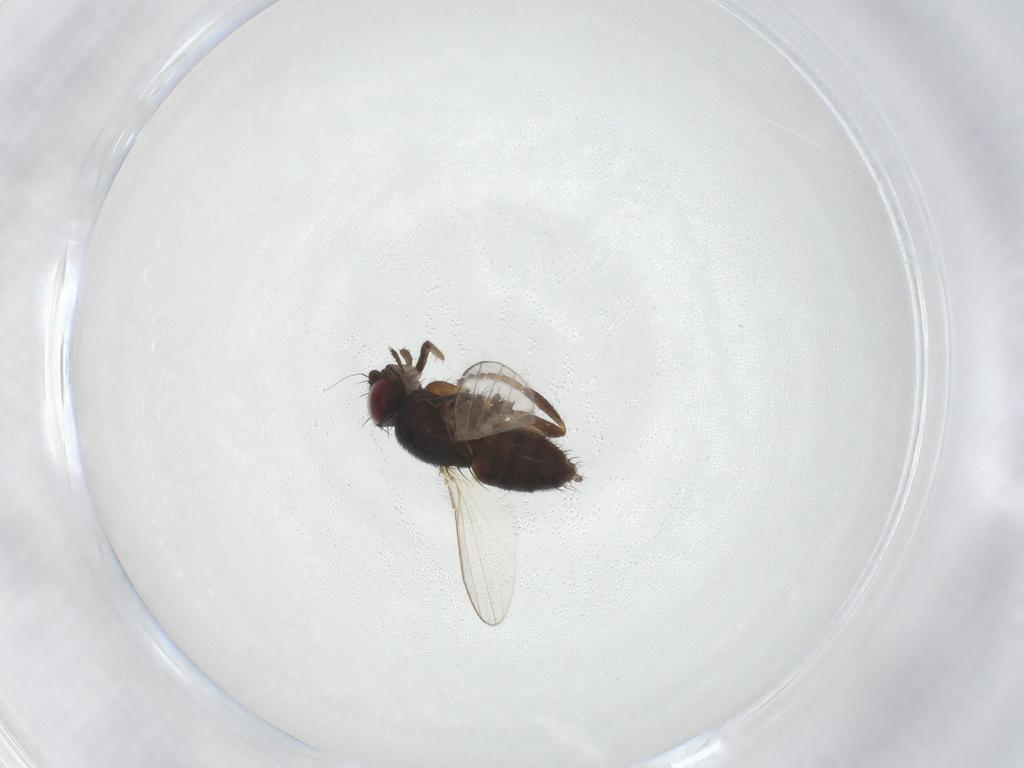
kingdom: Animalia
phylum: Arthropoda
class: Insecta
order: Diptera
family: Milichiidae
